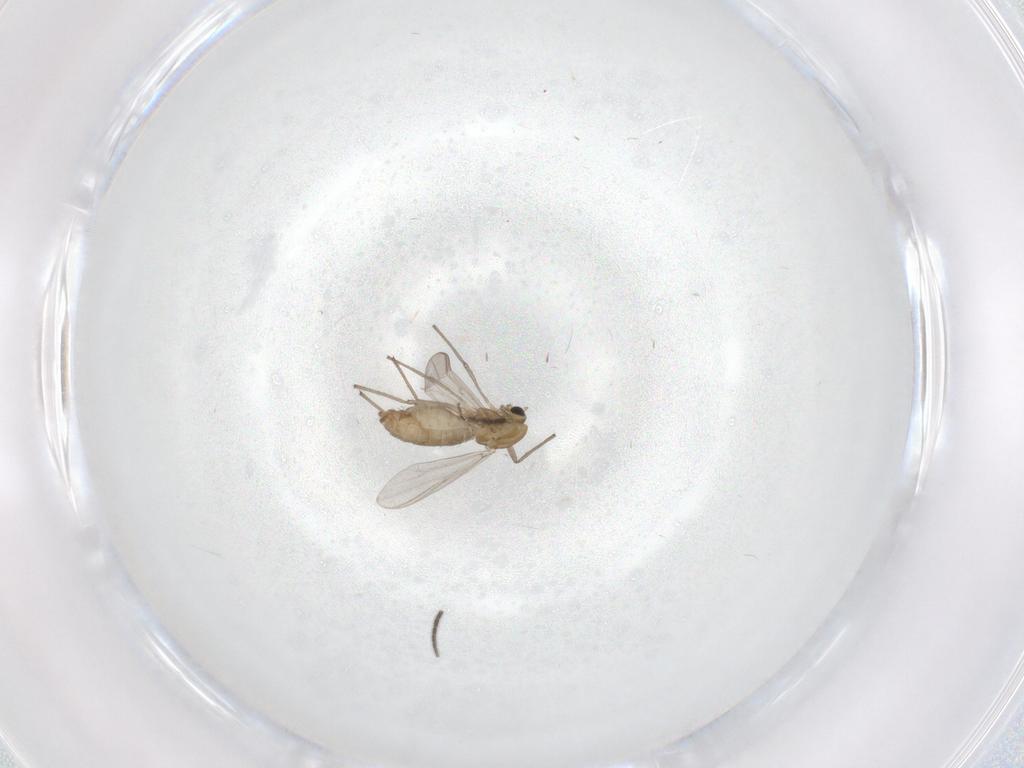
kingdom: Animalia
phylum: Arthropoda
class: Insecta
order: Diptera
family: Chironomidae
